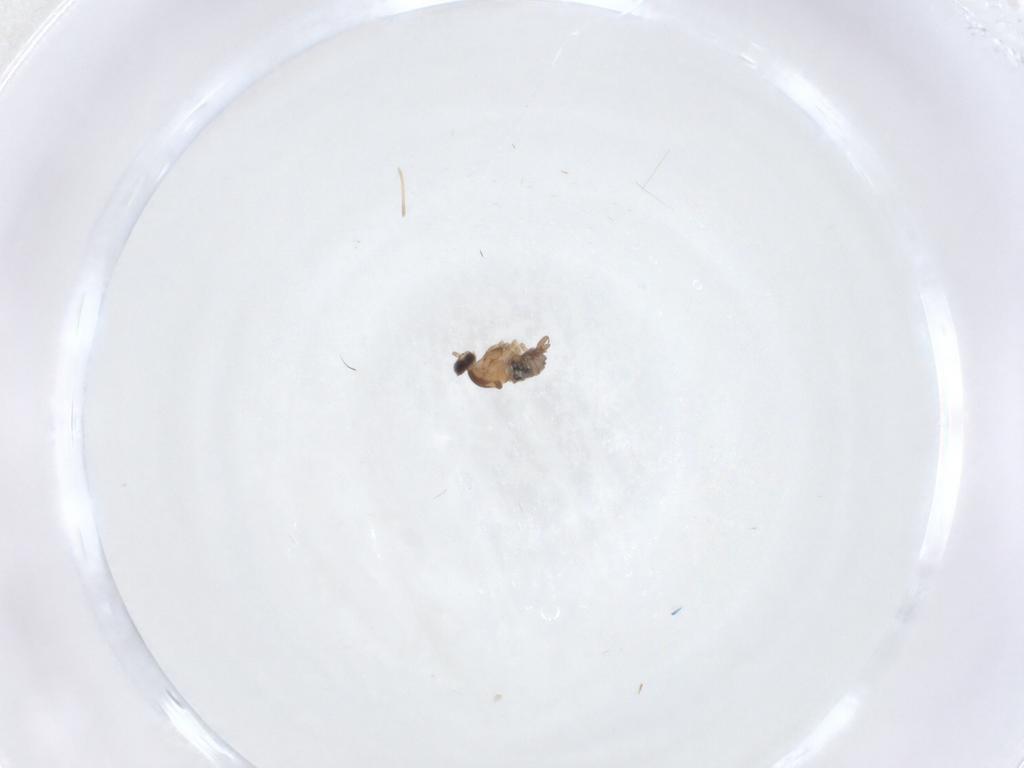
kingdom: Animalia
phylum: Arthropoda
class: Insecta
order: Diptera
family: Cecidomyiidae
